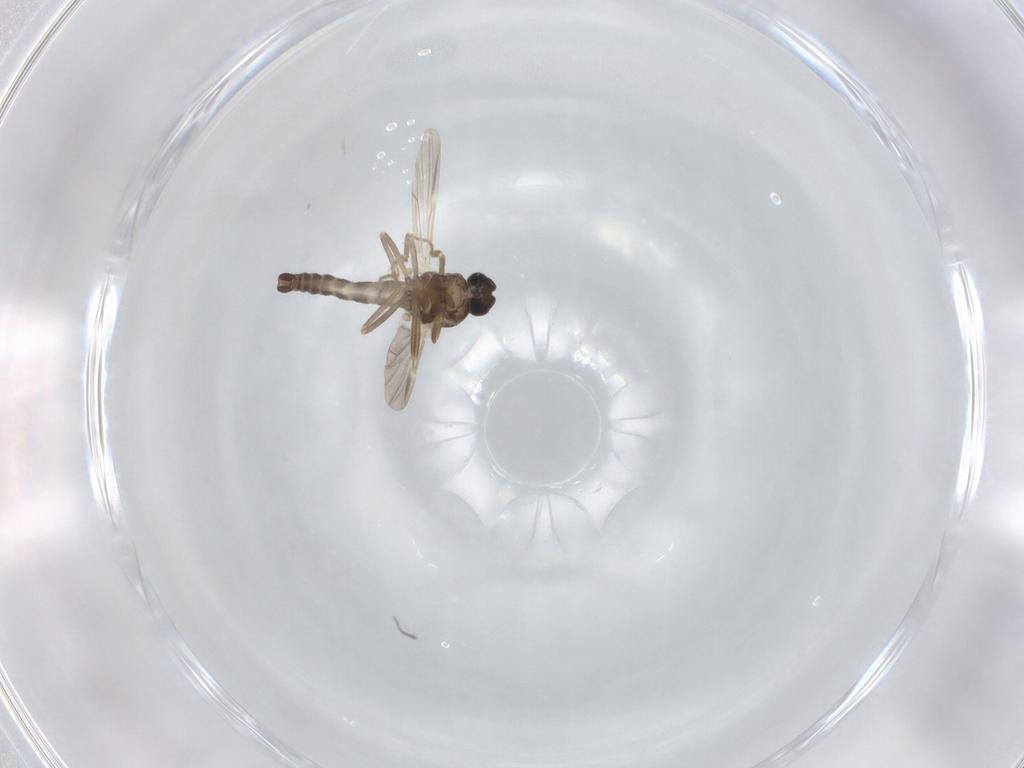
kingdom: Animalia
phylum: Arthropoda
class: Insecta
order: Diptera
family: Ceratopogonidae
